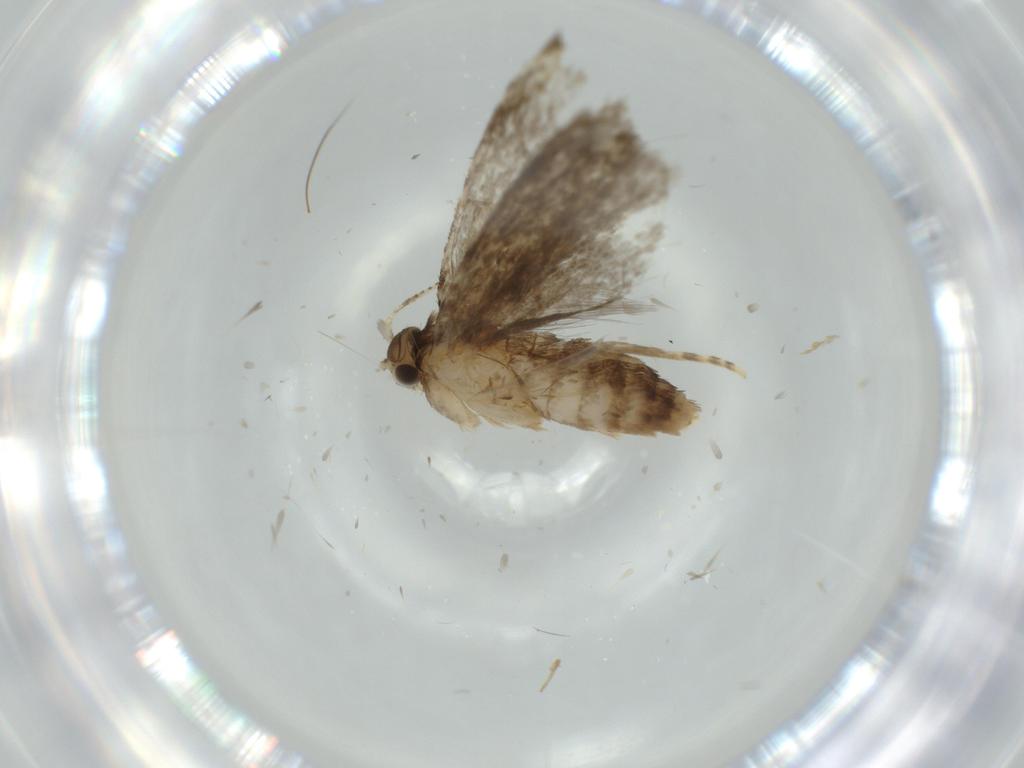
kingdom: Animalia
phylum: Arthropoda
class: Insecta
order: Lepidoptera
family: Tineidae
